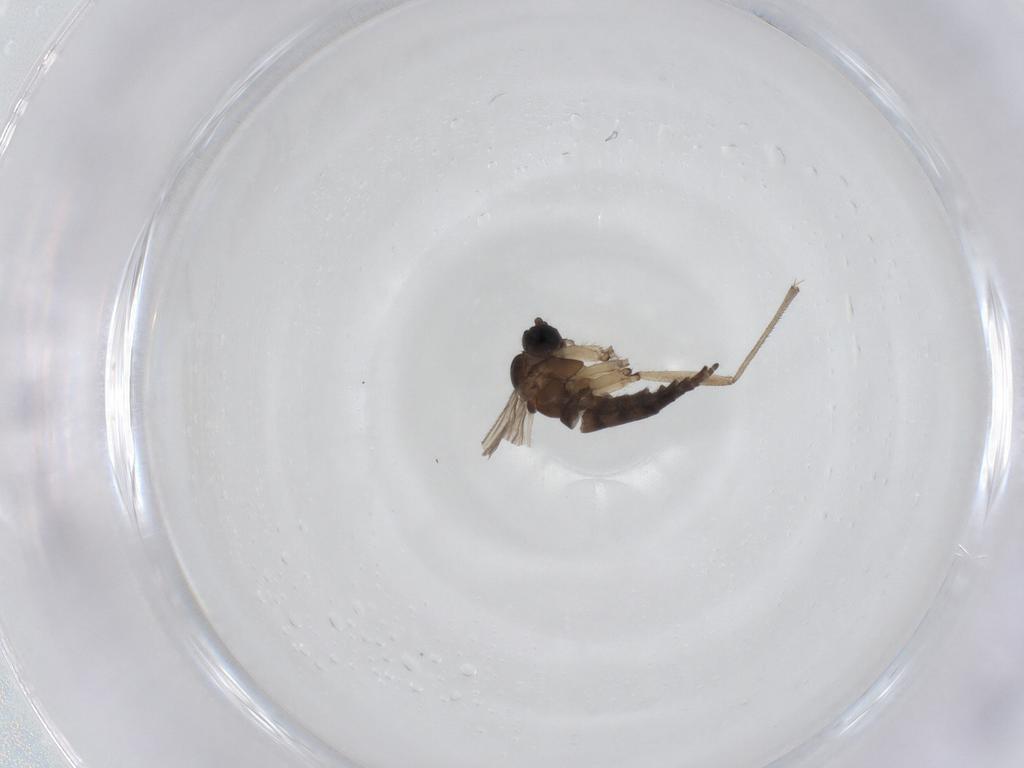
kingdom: Animalia
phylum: Arthropoda
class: Insecta
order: Diptera
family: Sciaridae
